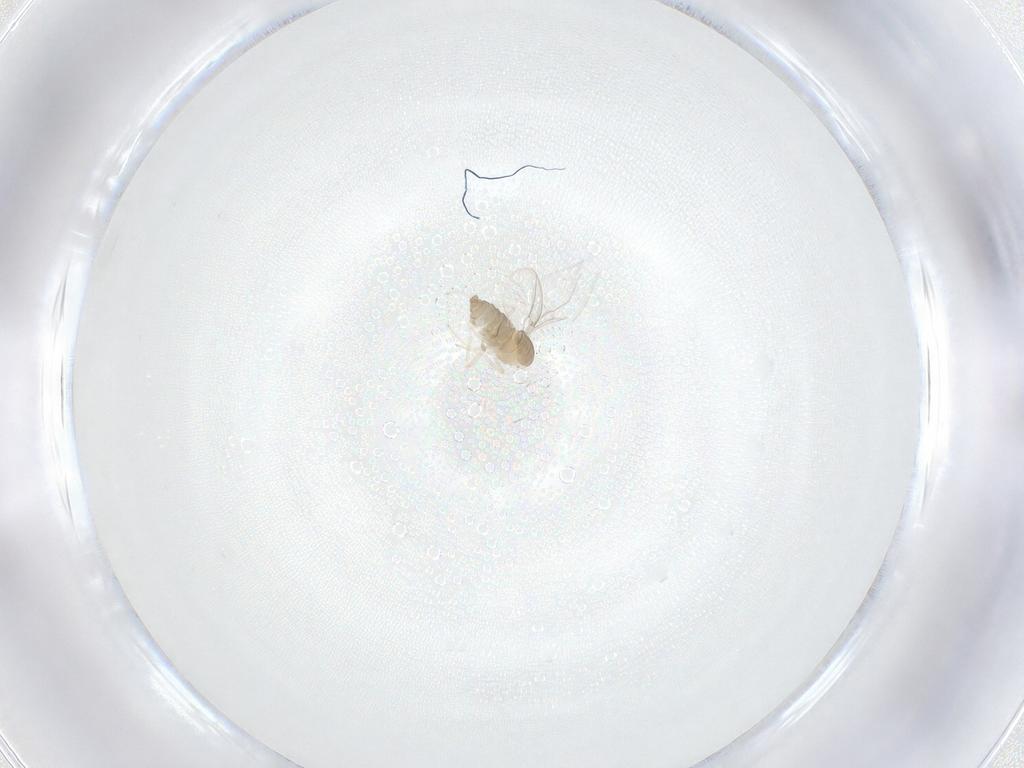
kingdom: Animalia
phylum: Arthropoda
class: Insecta
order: Diptera
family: Cecidomyiidae
